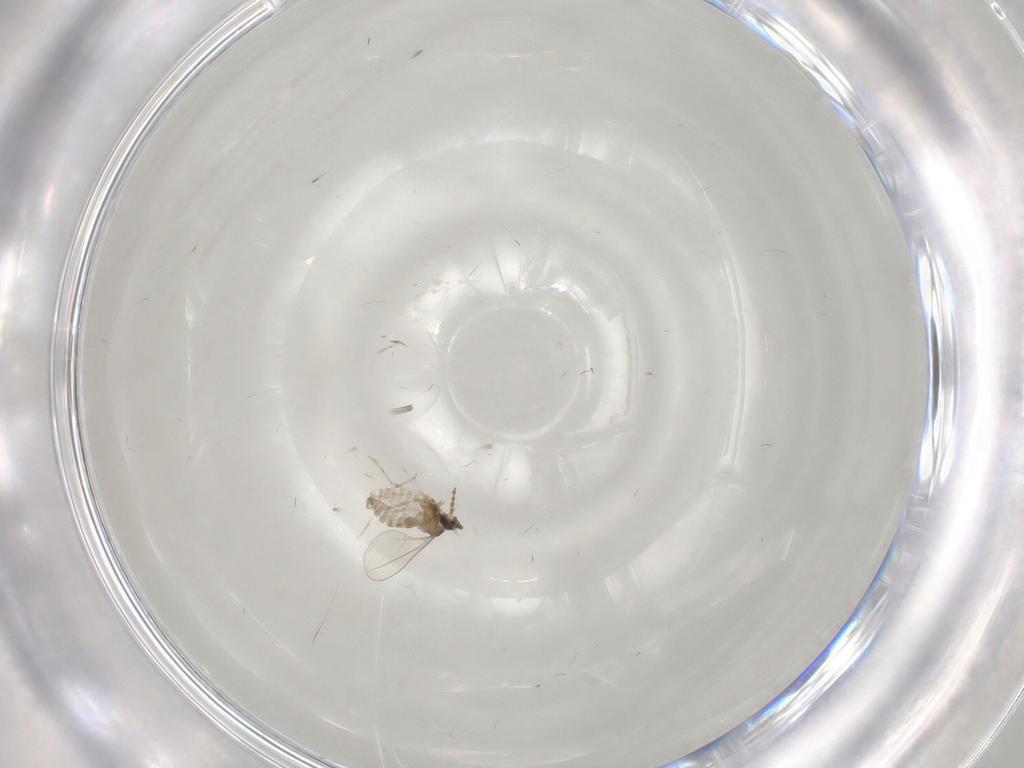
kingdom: Animalia
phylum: Arthropoda
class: Insecta
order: Diptera
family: Cecidomyiidae
